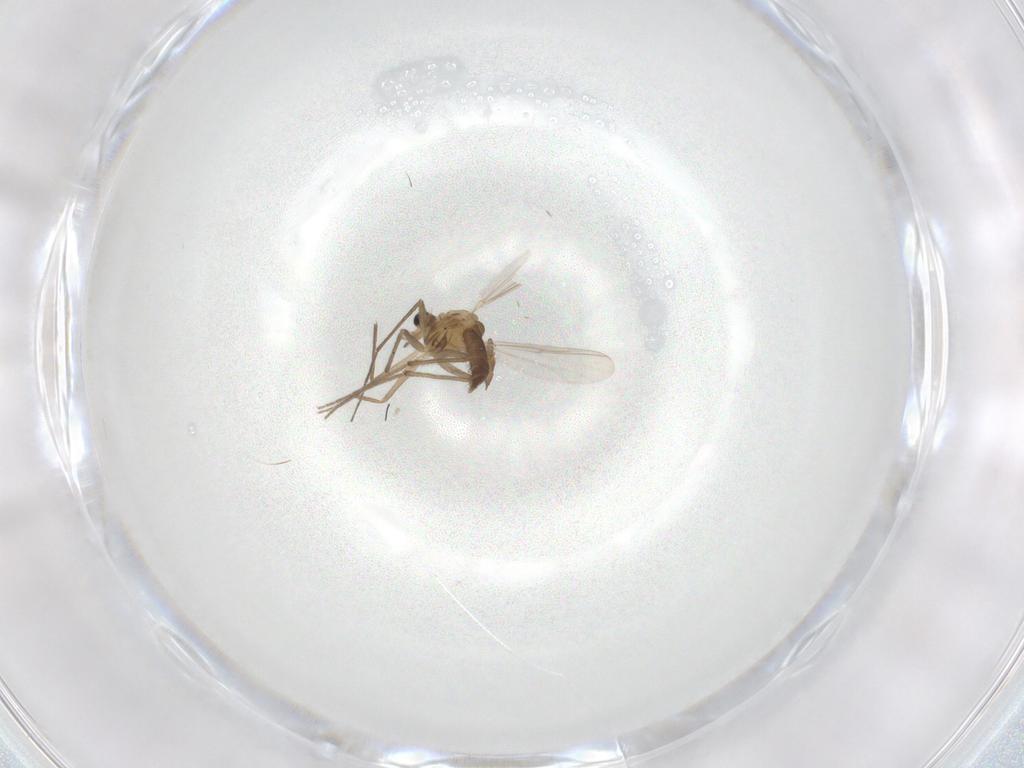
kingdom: Animalia
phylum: Arthropoda
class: Insecta
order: Diptera
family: Chironomidae
